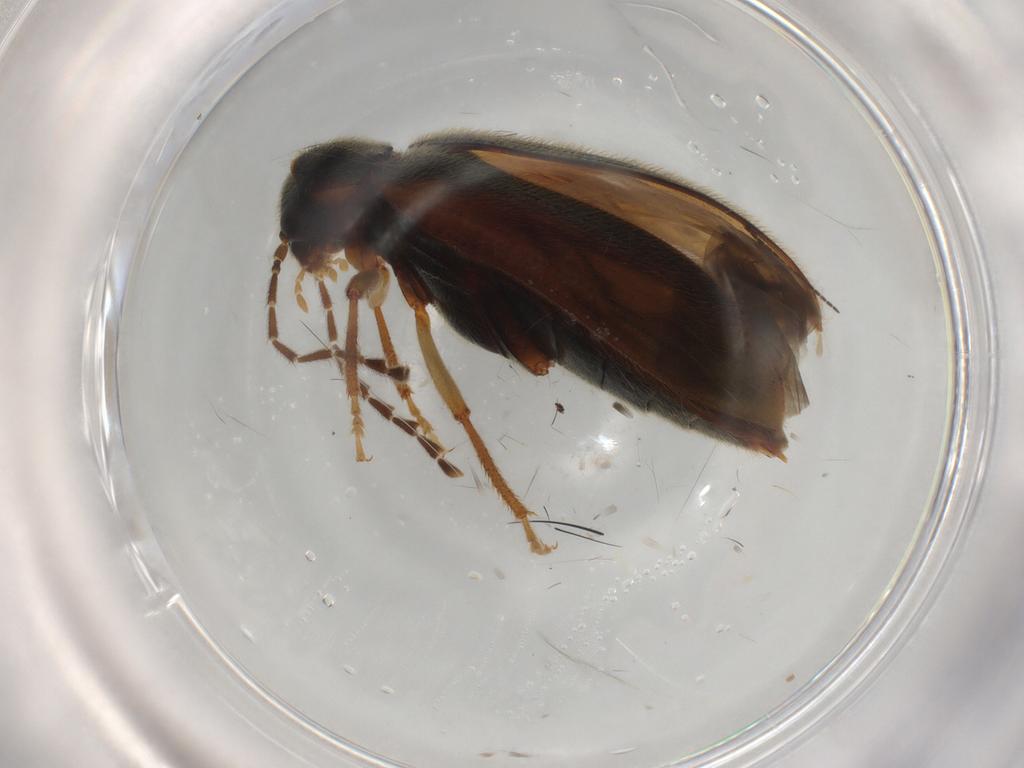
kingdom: Animalia
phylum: Arthropoda
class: Insecta
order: Coleoptera
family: Ptilodactylidae
